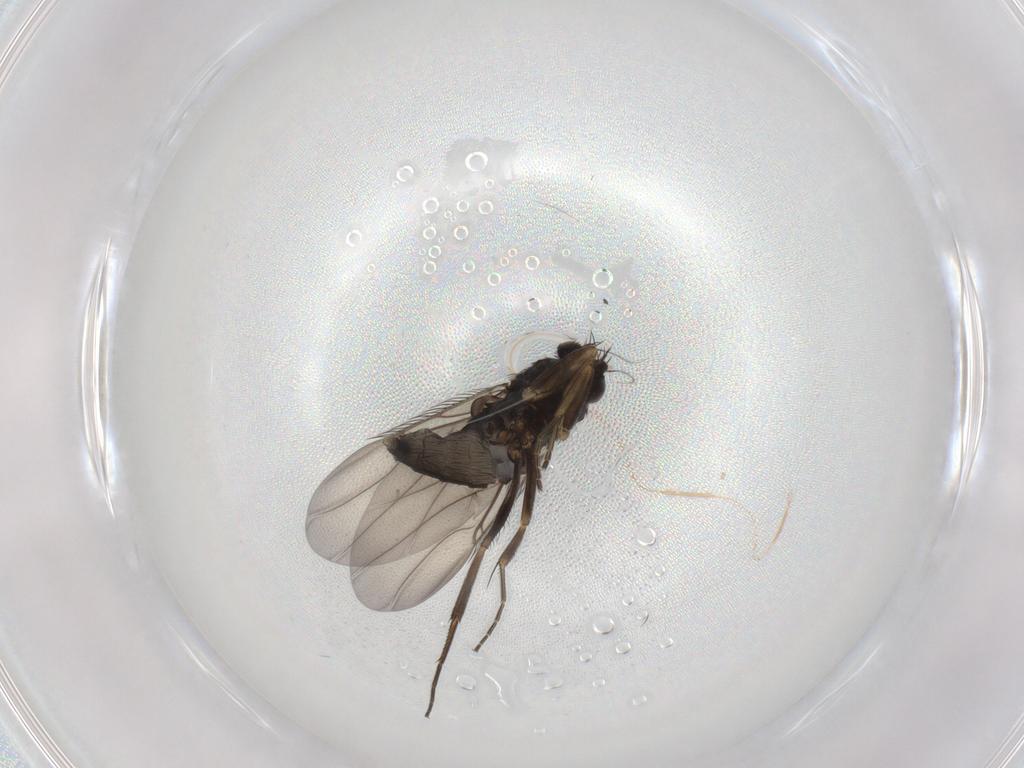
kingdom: Animalia
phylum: Arthropoda
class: Insecta
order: Diptera
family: Phoridae
